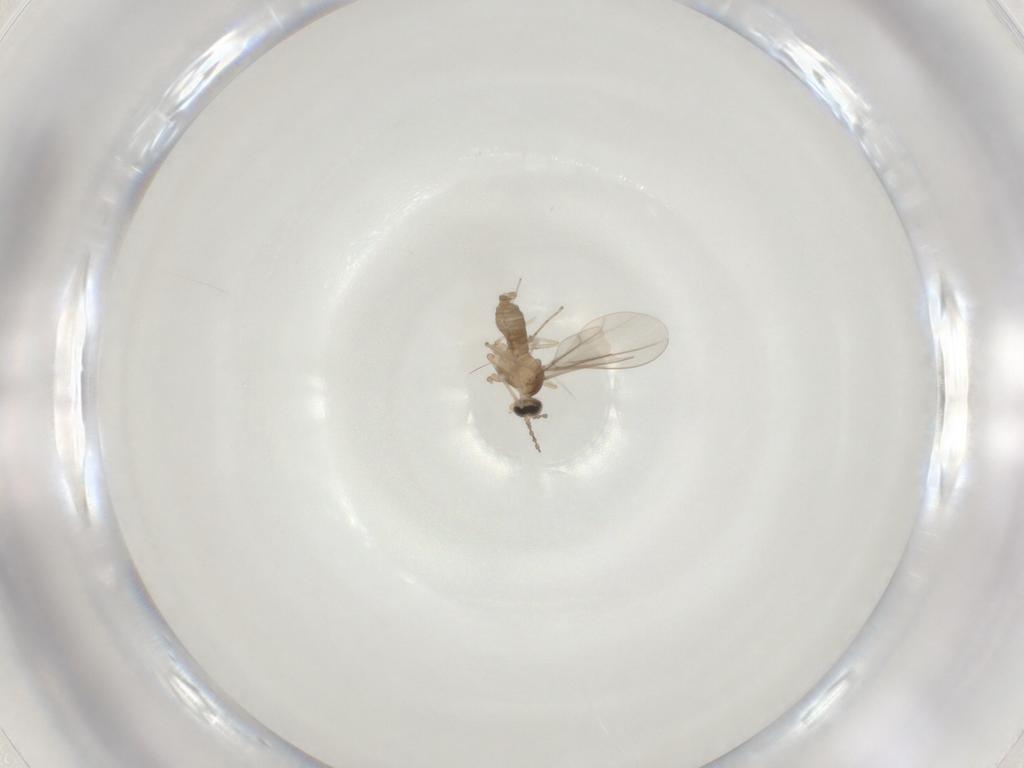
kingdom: Animalia
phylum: Arthropoda
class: Insecta
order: Diptera
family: Cecidomyiidae
